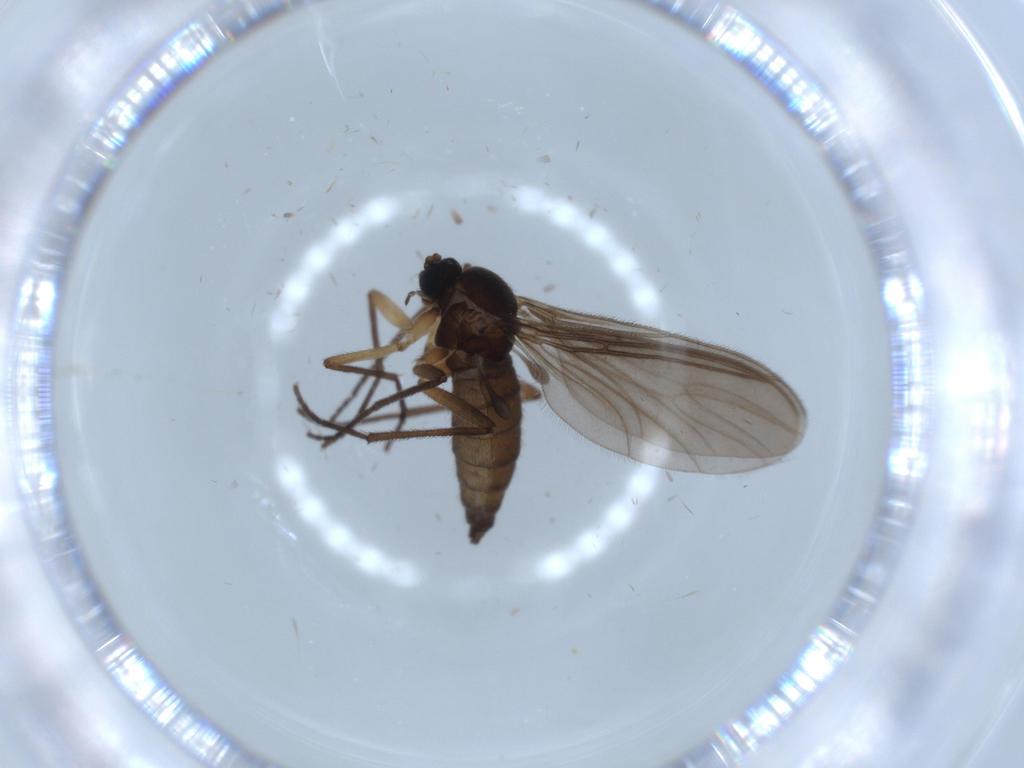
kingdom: Animalia
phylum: Arthropoda
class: Insecta
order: Diptera
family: Sciaridae
